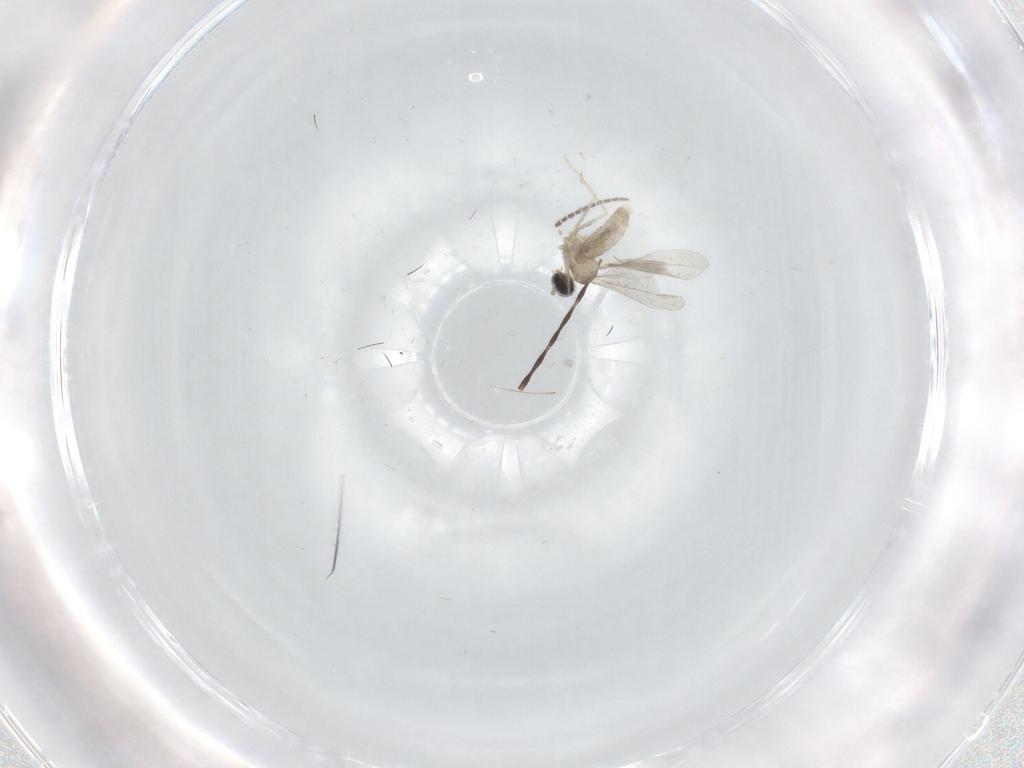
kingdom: Animalia
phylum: Arthropoda
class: Insecta
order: Diptera
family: Cecidomyiidae
